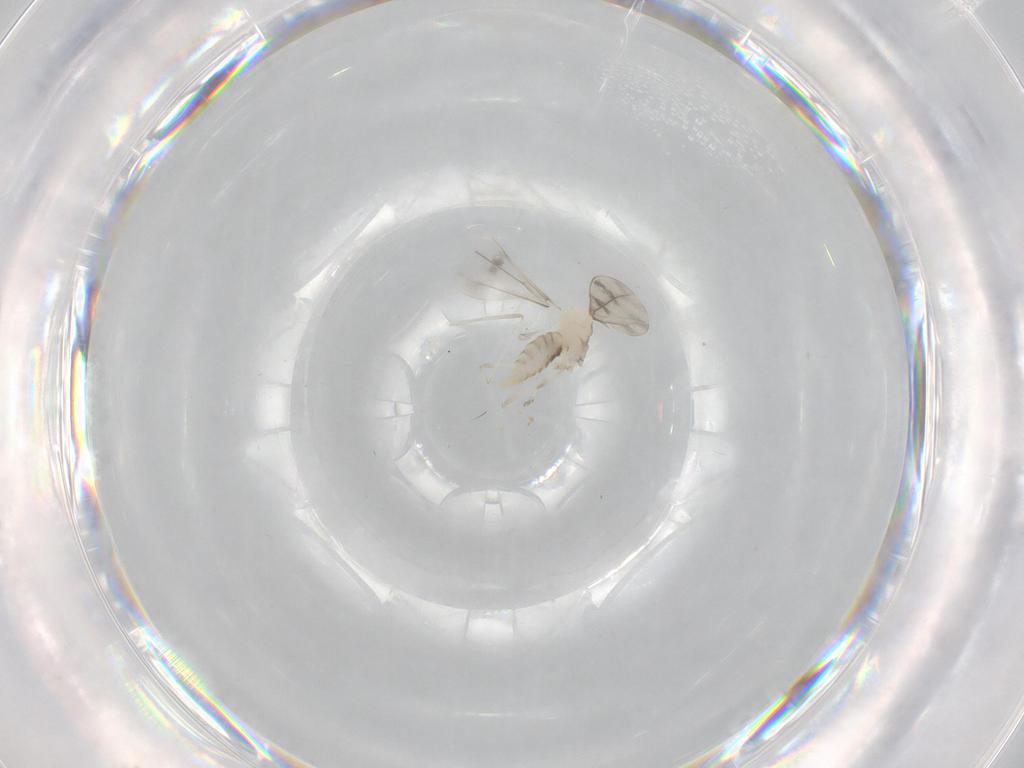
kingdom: Animalia
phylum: Arthropoda
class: Insecta
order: Diptera
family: Cecidomyiidae
